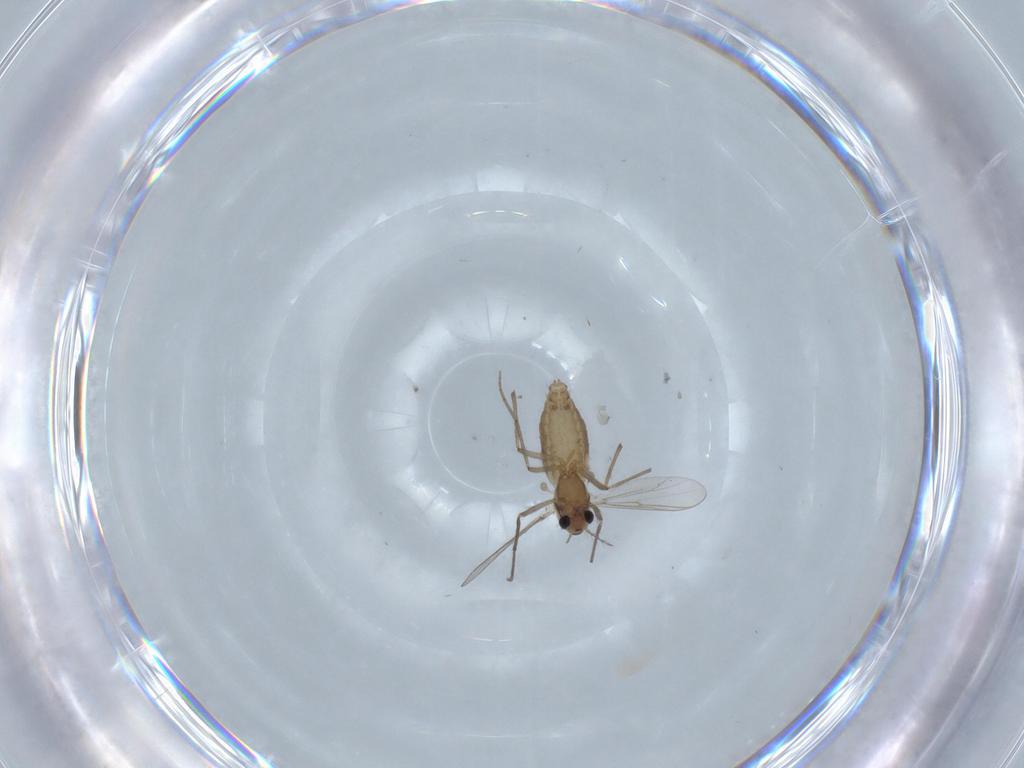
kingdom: Animalia
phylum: Arthropoda
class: Insecta
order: Diptera
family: Chironomidae
